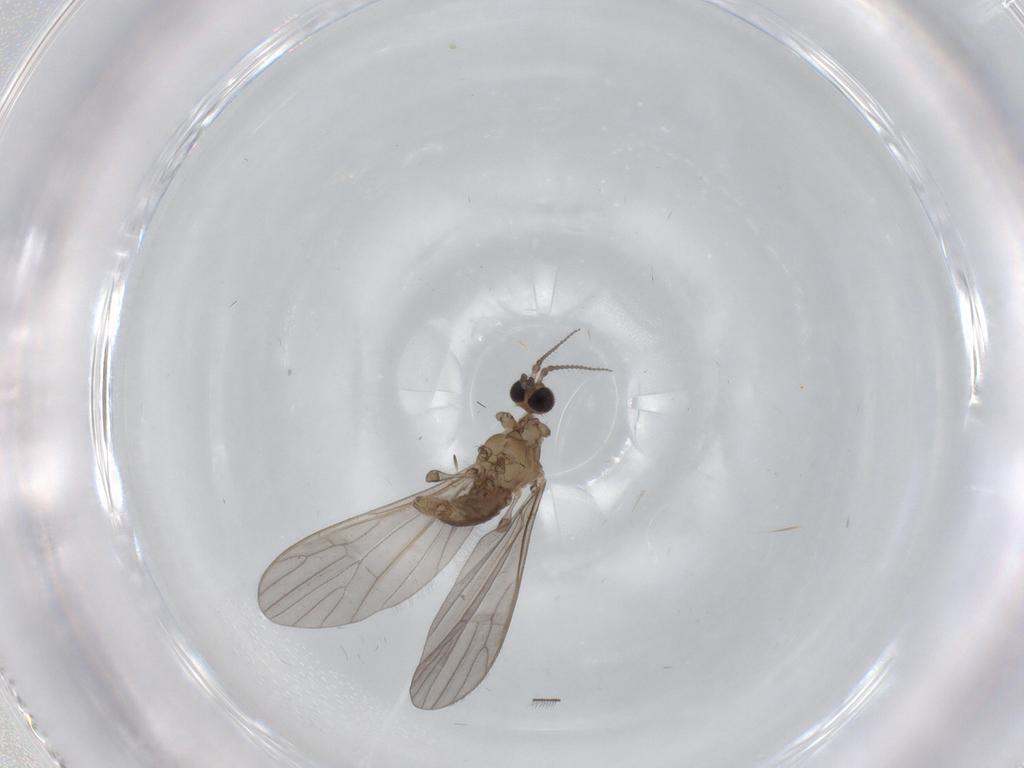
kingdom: Animalia
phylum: Arthropoda
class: Insecta
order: Diptera
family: Limoniidae
